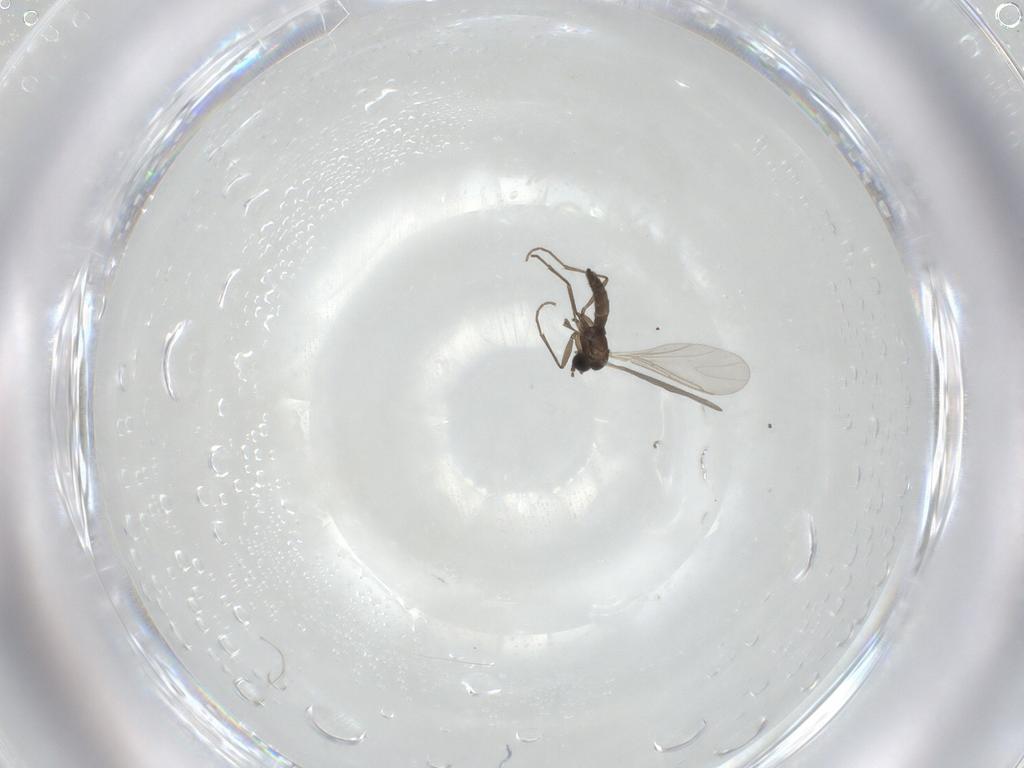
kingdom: Animalia
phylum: Arthropoda
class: Insecta
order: Diptera
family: Sciaridae
